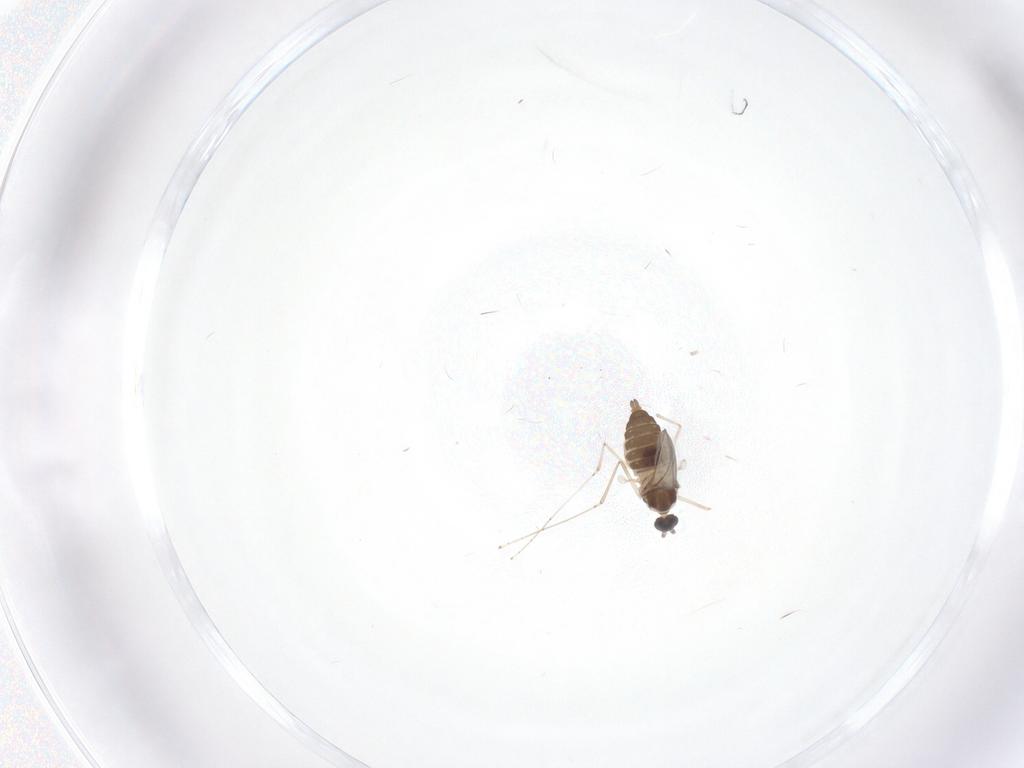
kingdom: Animalia
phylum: Arthropoda
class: Insecta
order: Diptera
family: Chironomidae
